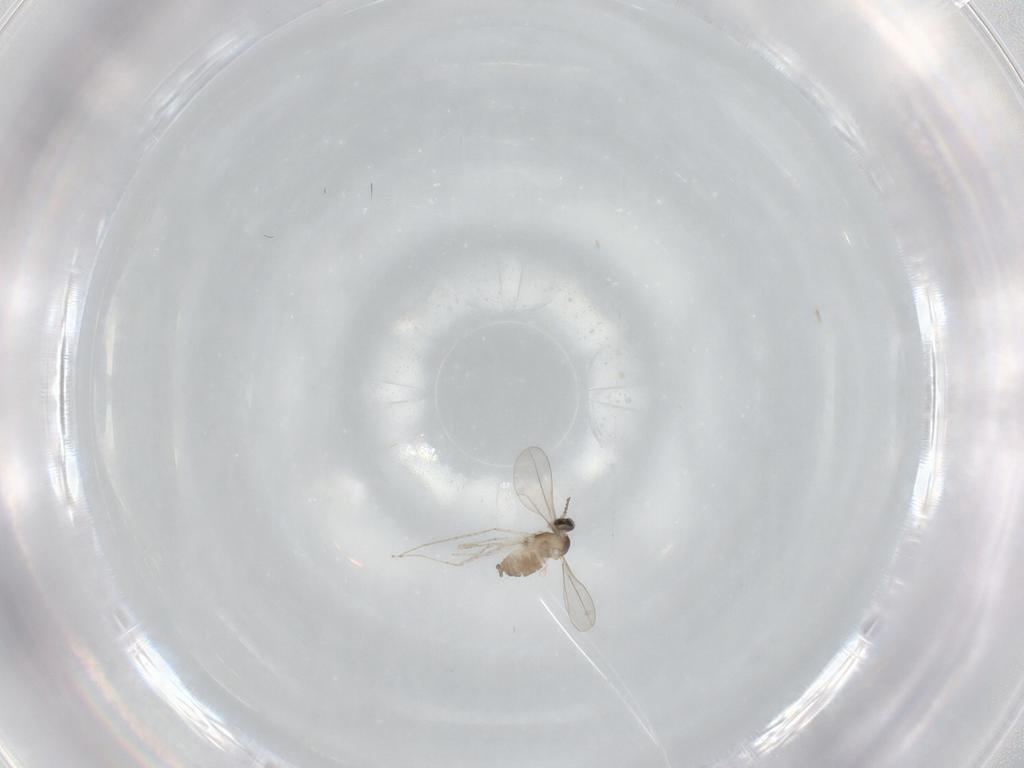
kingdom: Animalia
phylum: Arthropoda
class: Insecta
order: Diptera
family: Cecidomyiidae
